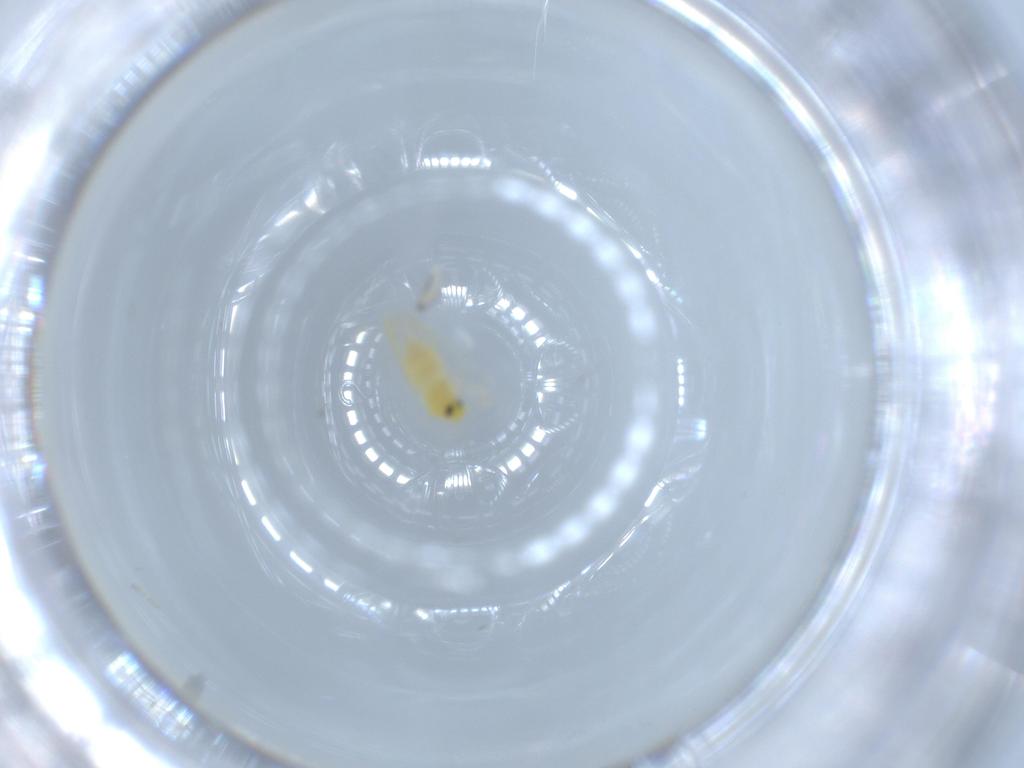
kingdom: Animalia
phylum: Arthropoda
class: Insecta
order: Hemiptera
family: Aleyrodidae
